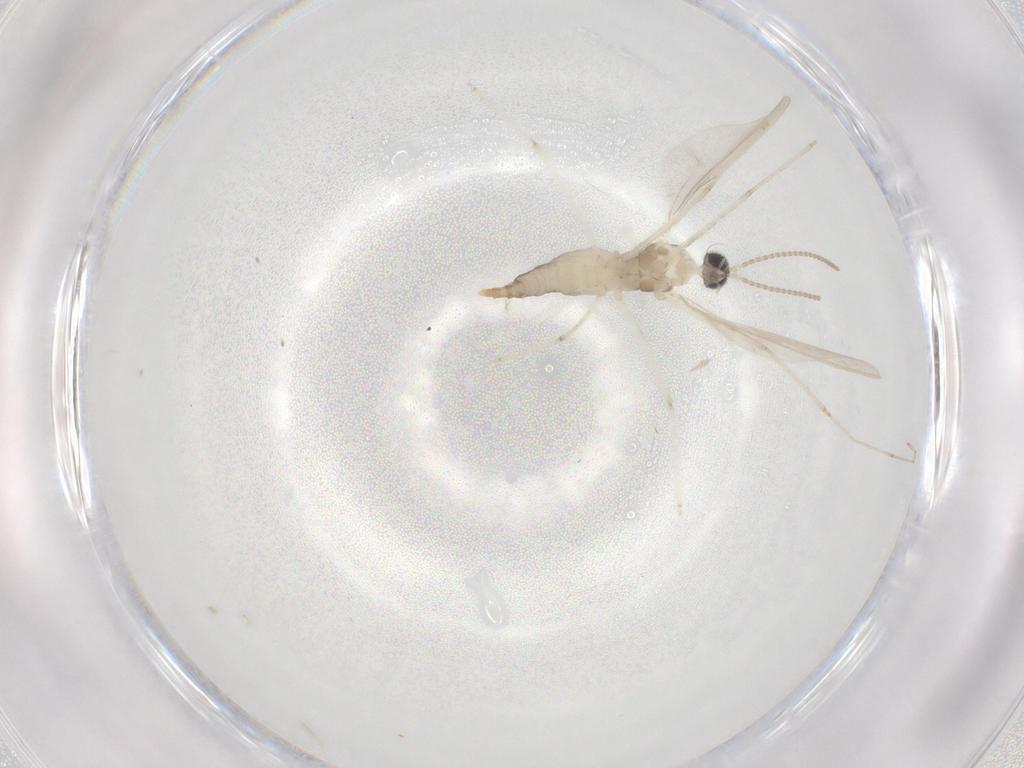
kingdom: Animalia
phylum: Arthropoda
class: Insecta
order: Diptera
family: Cecidomyiidae
